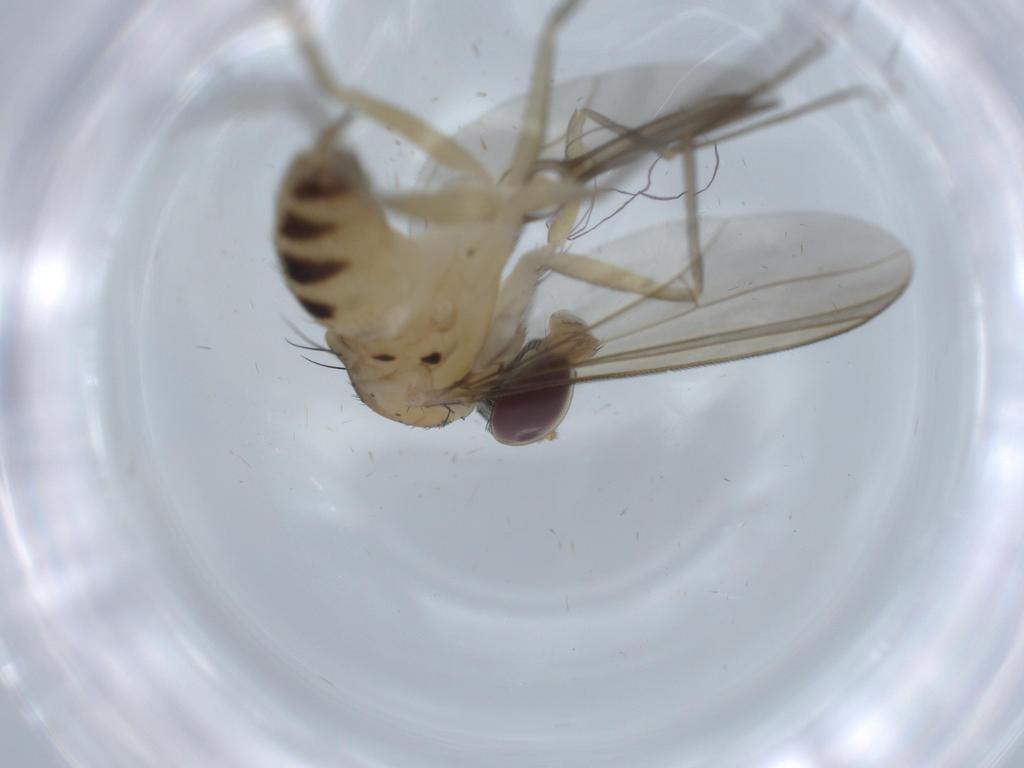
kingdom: Animalia
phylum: Arthropoda
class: Insecta
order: Diptera
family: Dolichopodidae
